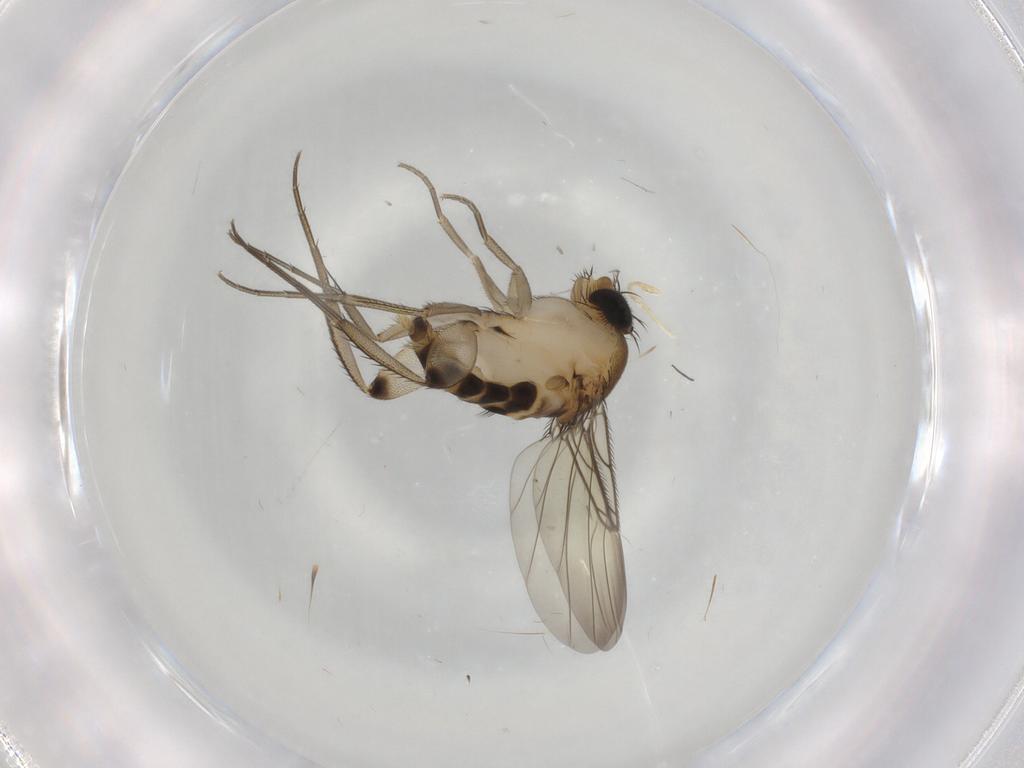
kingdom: Animalia
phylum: Arthropoda
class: Insecta
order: Diptera
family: Phoridae
